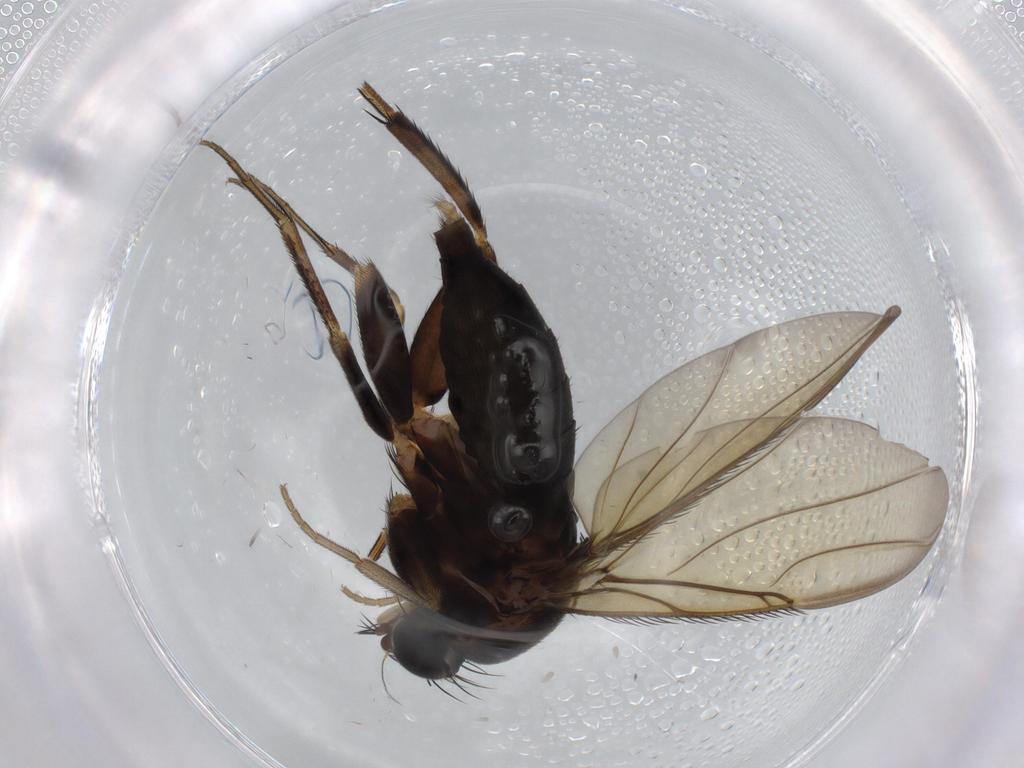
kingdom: Animalia
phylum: Arthropoda
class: Insecta
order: Diptera
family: Phoridae
